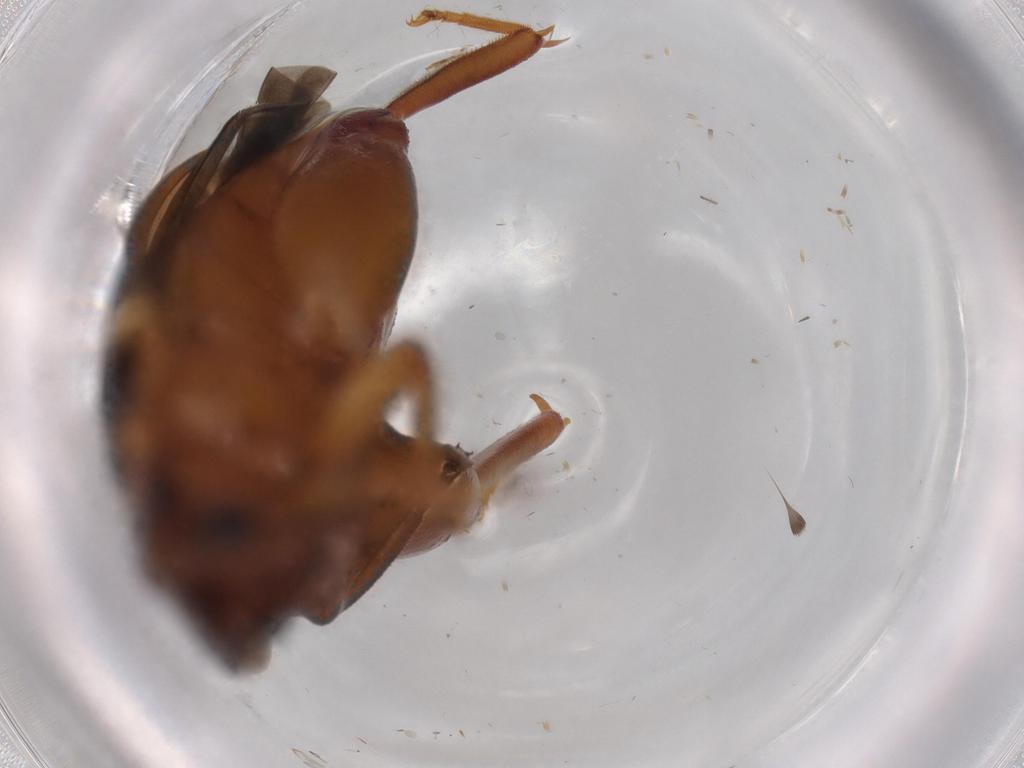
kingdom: Animalia
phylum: Arthropoda
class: Insecta
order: Coleoptera
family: Scirtidae
